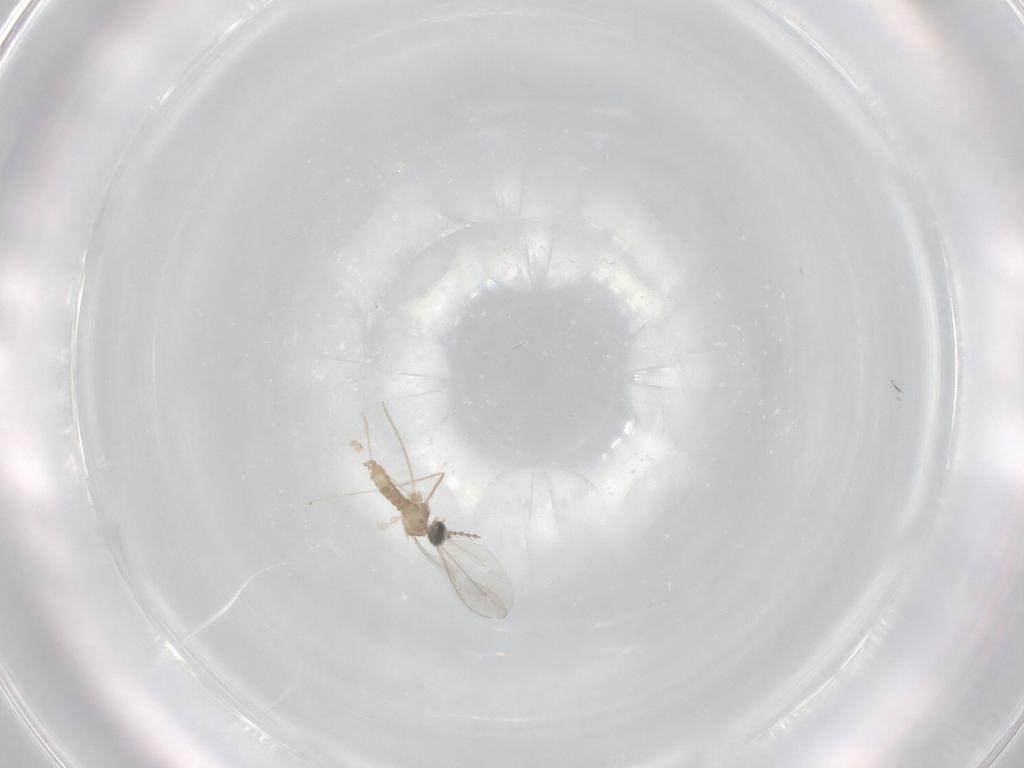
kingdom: Animalia
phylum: Arthropoda
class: Insecta
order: Diptera
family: Cecidomyiidae
